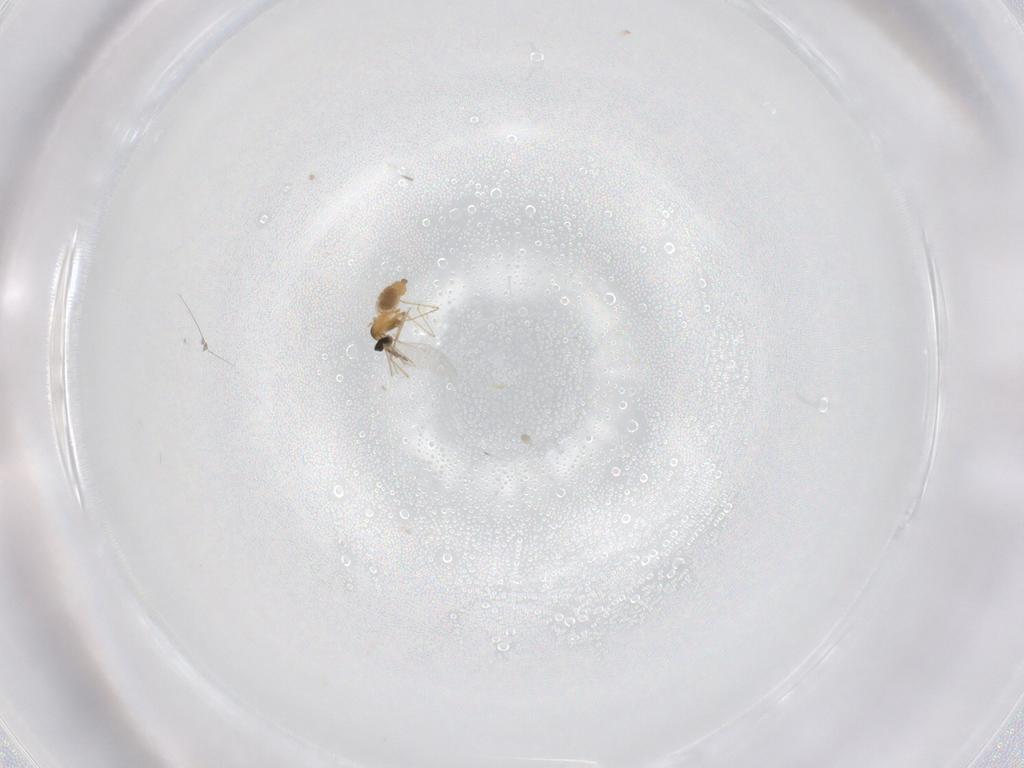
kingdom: Animalia
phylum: Arthropoda
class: Insecta
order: Diptera
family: Cecidomyiidae
